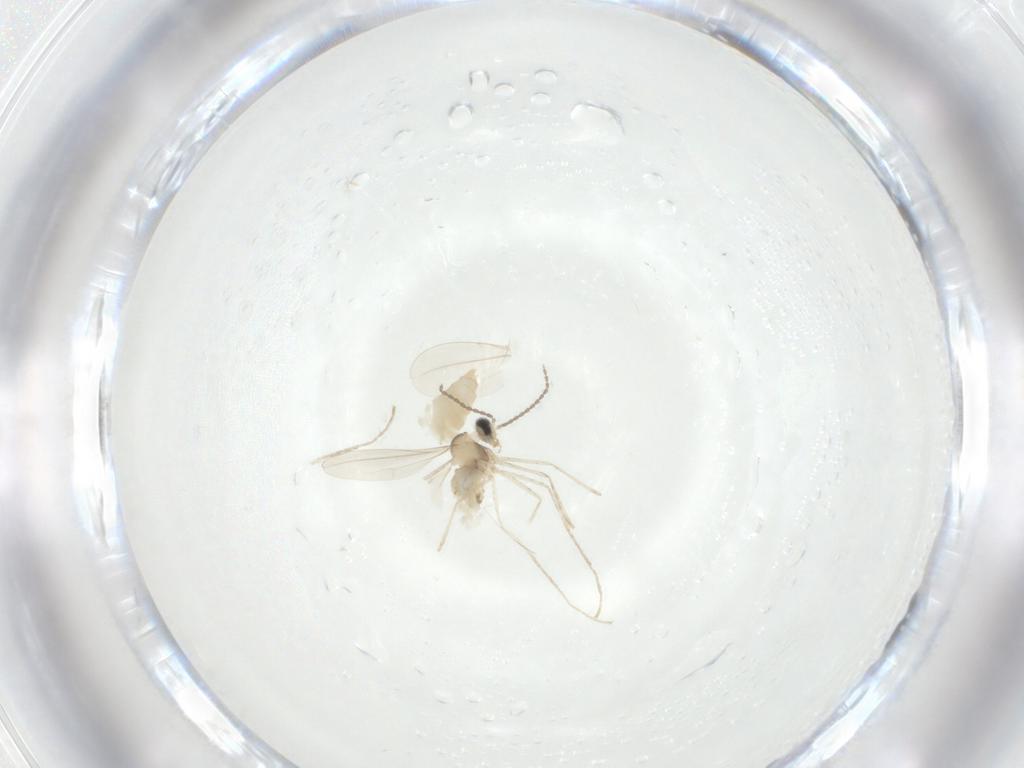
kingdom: Animalia
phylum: Arthropoda
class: Insecta
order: Diptera
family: Cecidomyiidae
